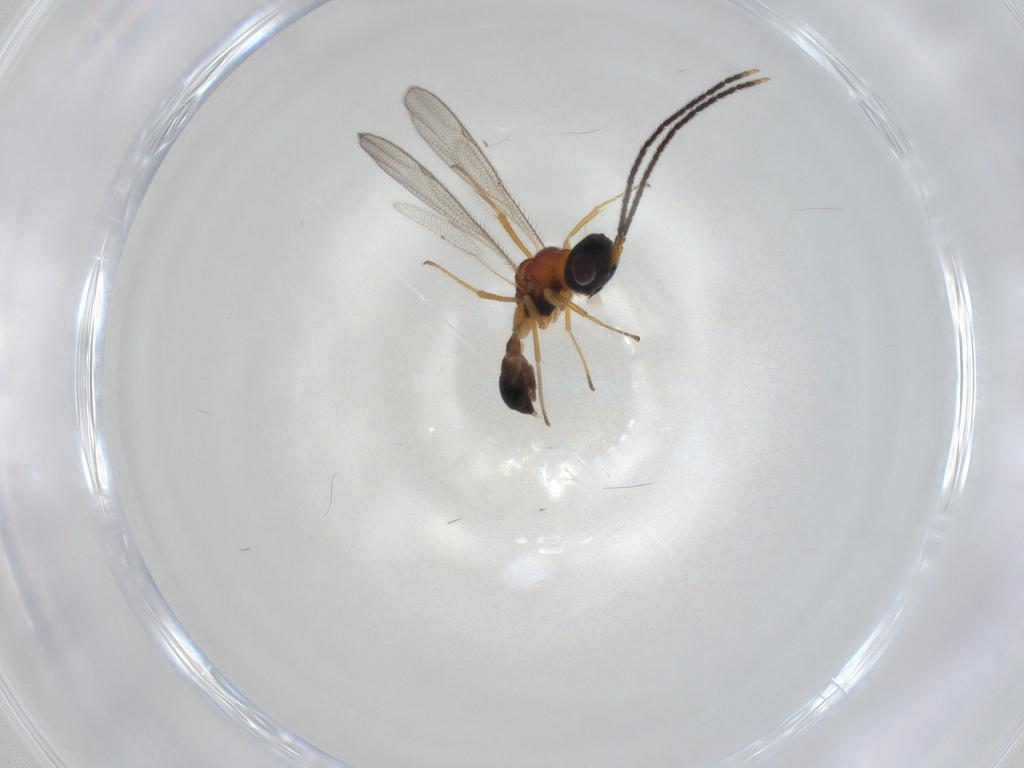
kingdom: Animalia
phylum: Arthropoda
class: Insecta
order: Hymenoptera
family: Pteromalidae
